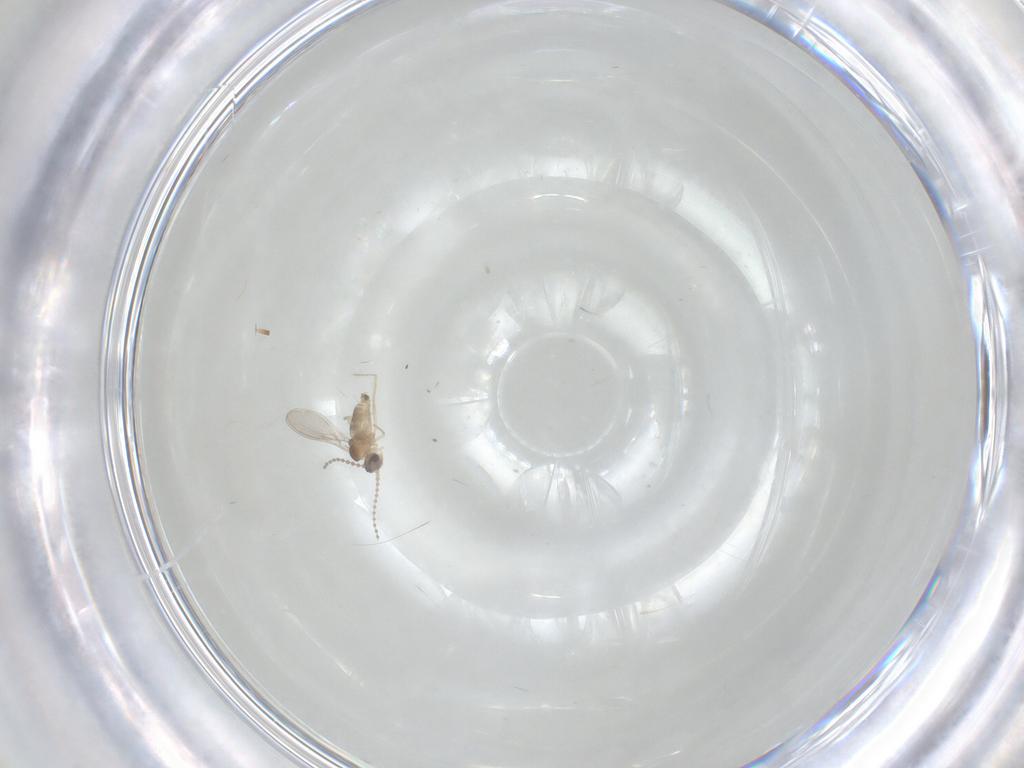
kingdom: Animalia
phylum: Arthropoda
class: Insecta
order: Diptera
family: Cecidomyiidae
